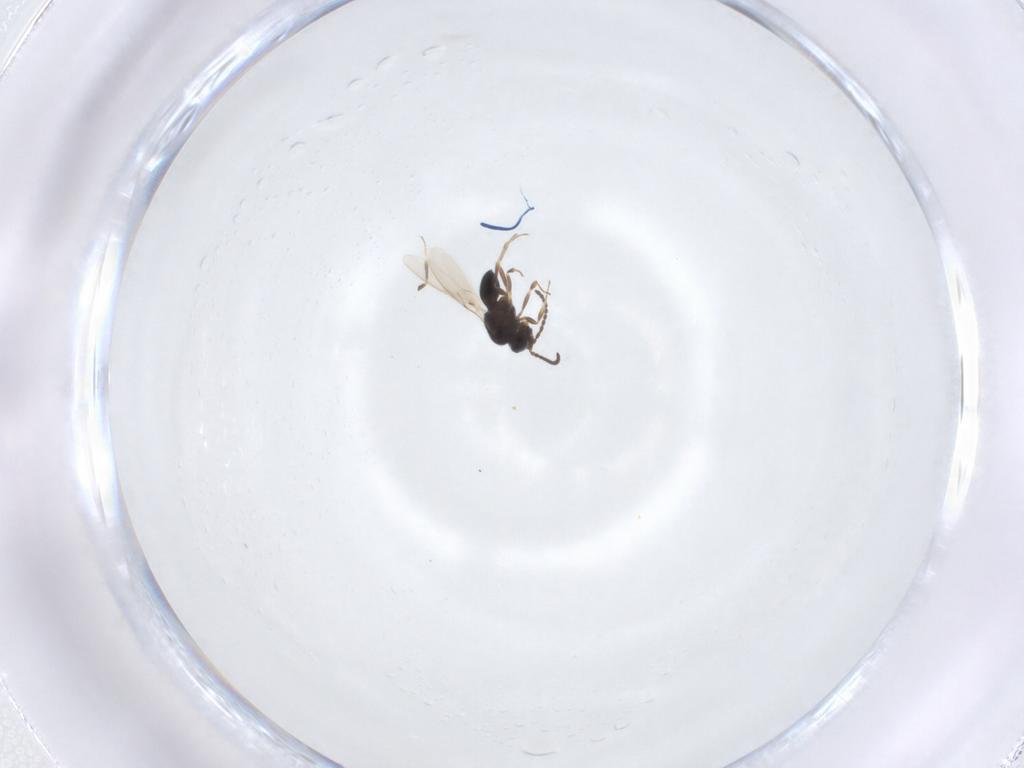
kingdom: Animalia
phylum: Arthropoda
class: Insecta
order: Hymenoptera
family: Scelionidae
